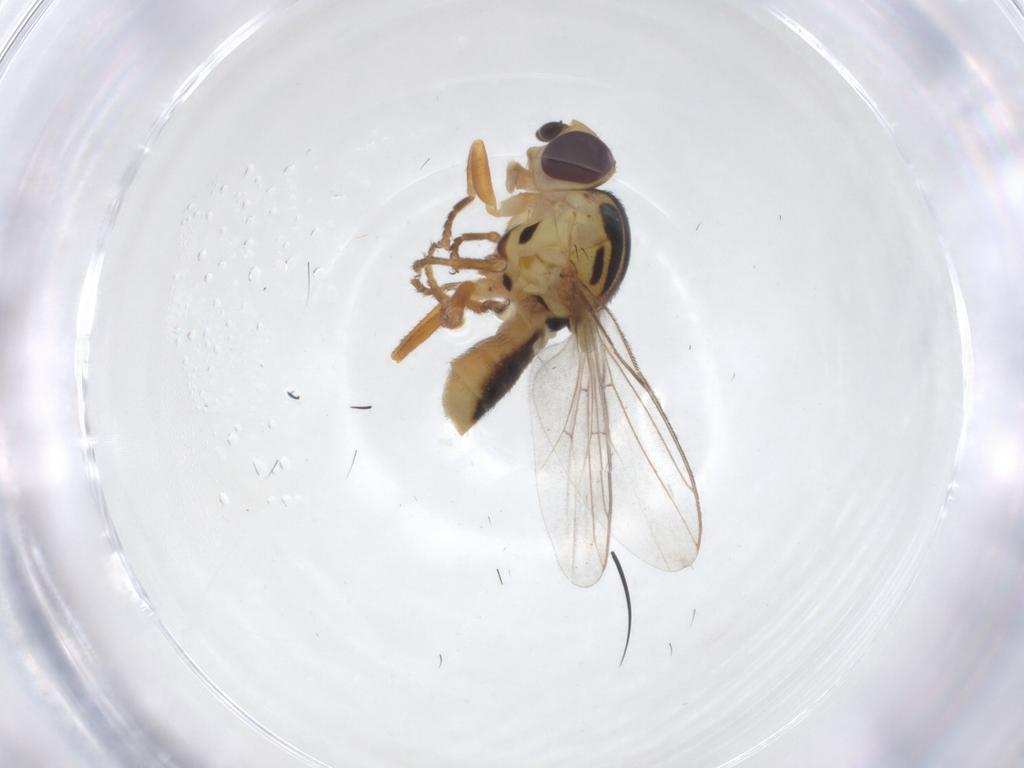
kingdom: Animalia
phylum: Arthropoda
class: Insecta
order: Diptera
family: Chloropidae
